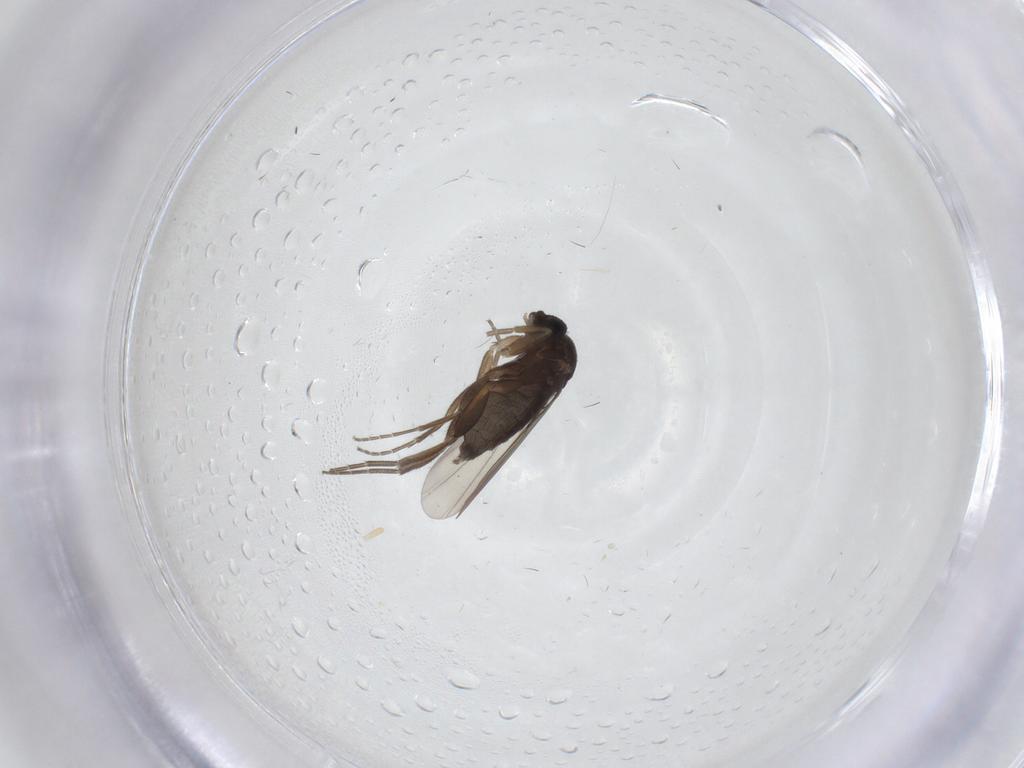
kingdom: Animalia
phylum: Arthropoda
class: Insecta
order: Diptera
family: Phoridae
